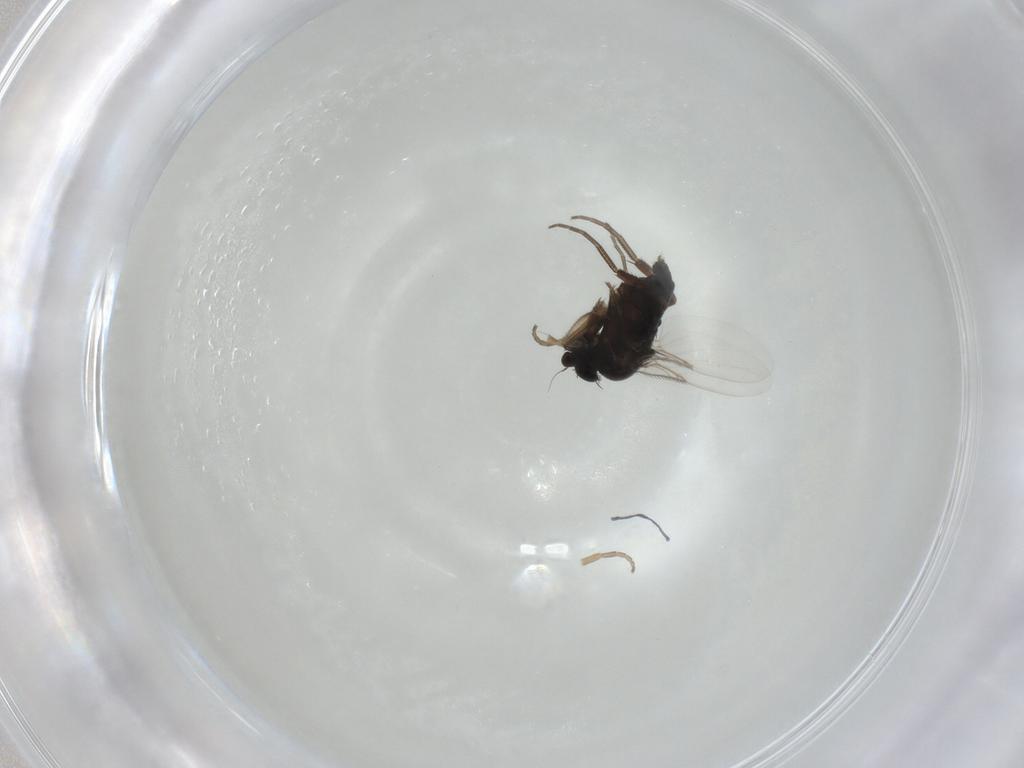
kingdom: Animalia
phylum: Arthropoda
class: Insecta
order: Diptera
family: Phoridae
